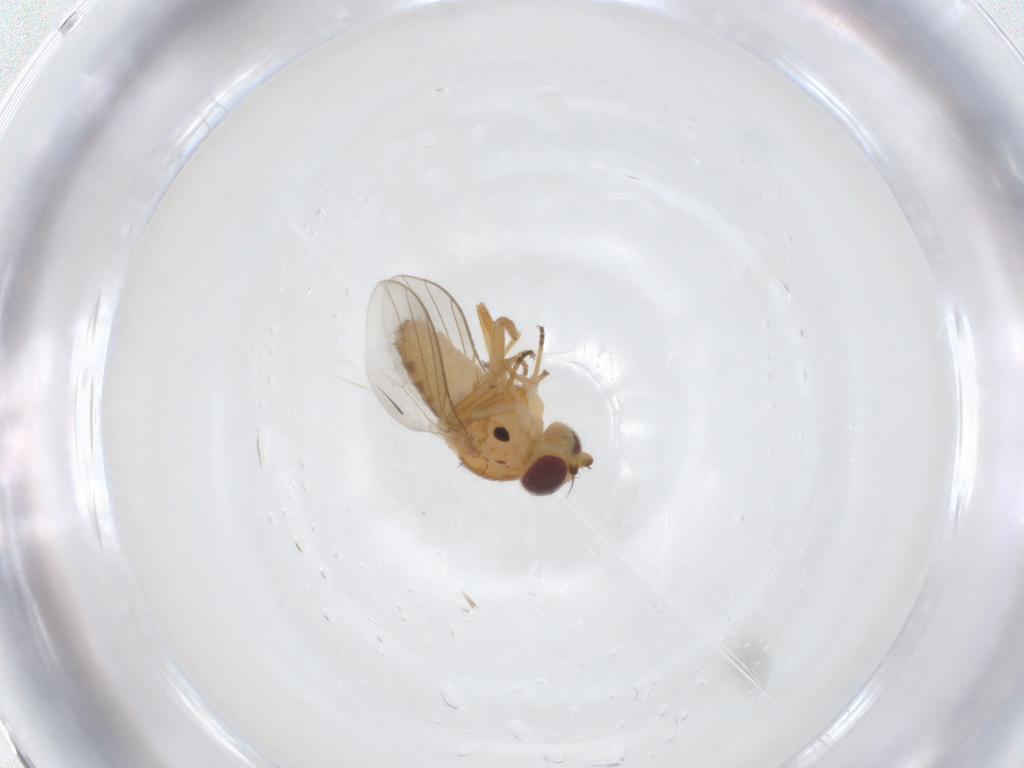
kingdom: Animalia
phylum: Arthropoda
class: Insecta
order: Diptera
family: Chloropidae
